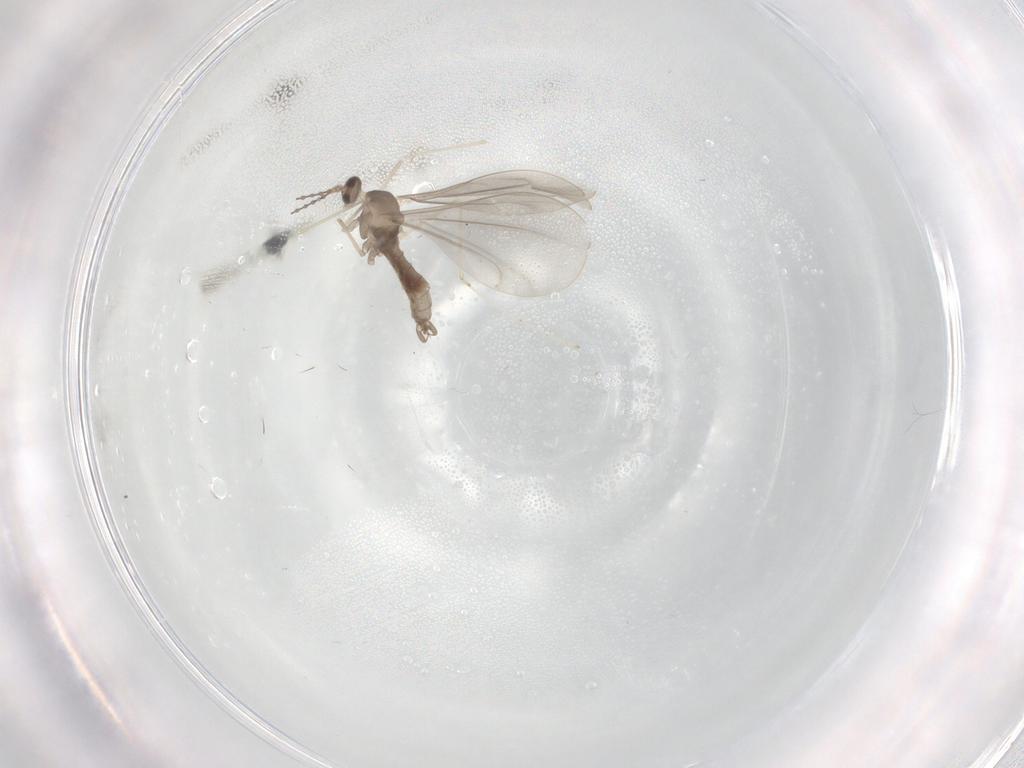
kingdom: Animalia
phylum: Arthropoda
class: Insecta
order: Diptera
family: Cecidomyiidae
